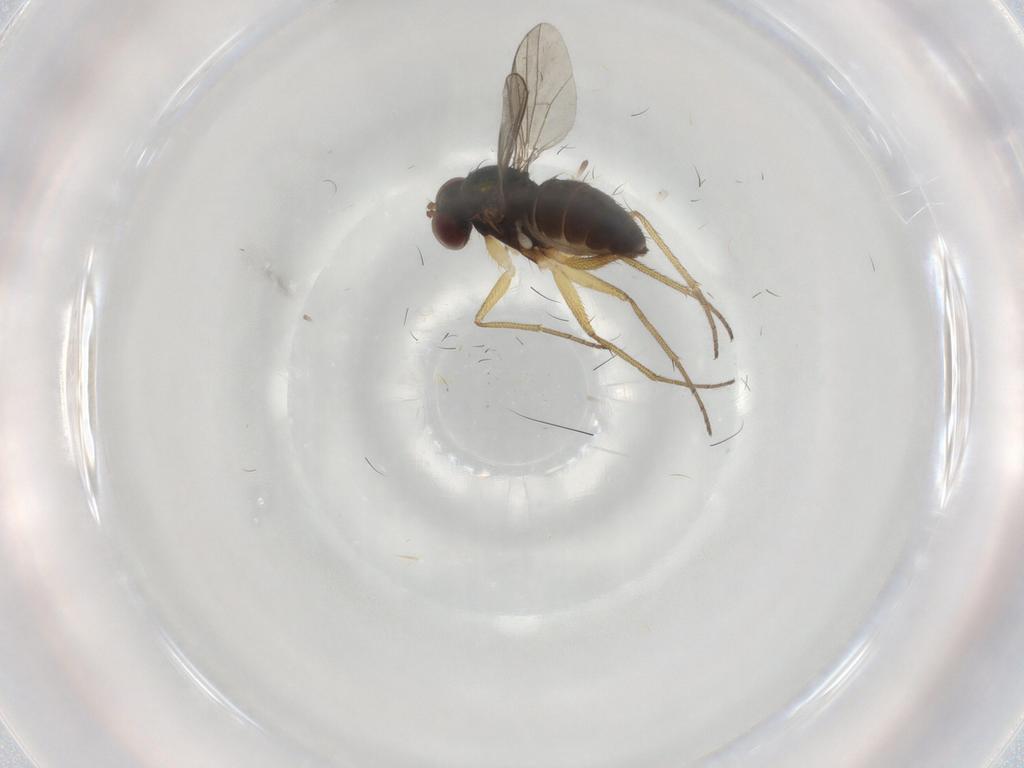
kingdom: Animalia
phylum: Arthropoda
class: Insecta
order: Diptera
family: Dolichopodidae
